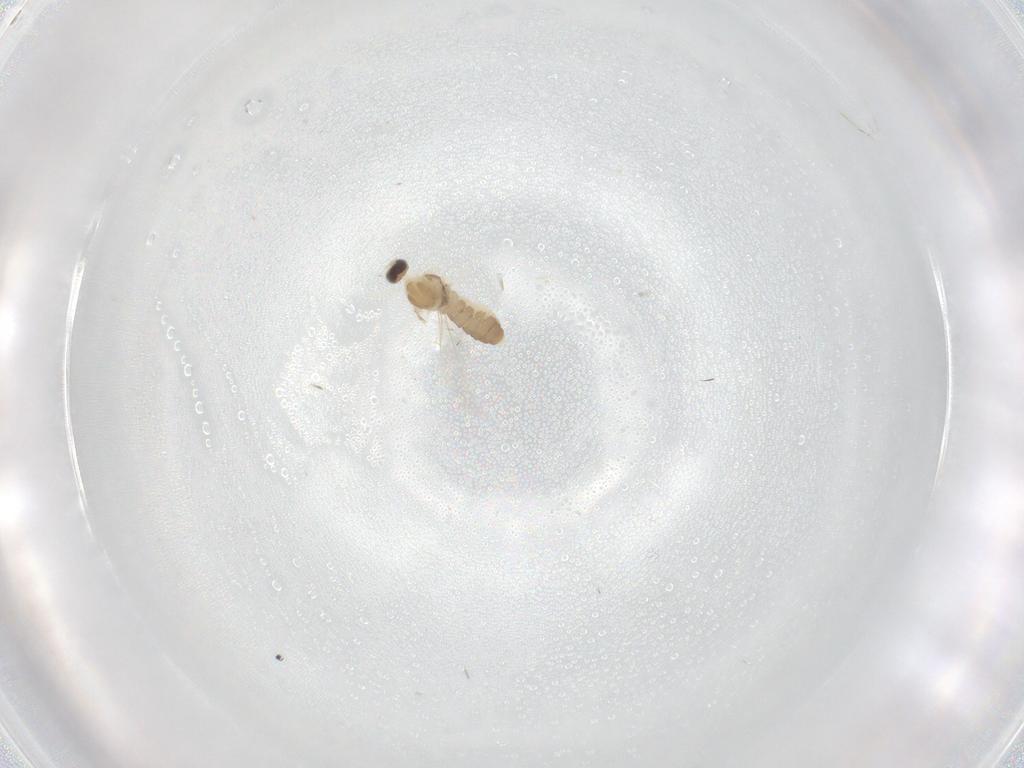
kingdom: Animalia
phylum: Arthropoda
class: Insecta
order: Diptera
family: Cecidomyiidae
